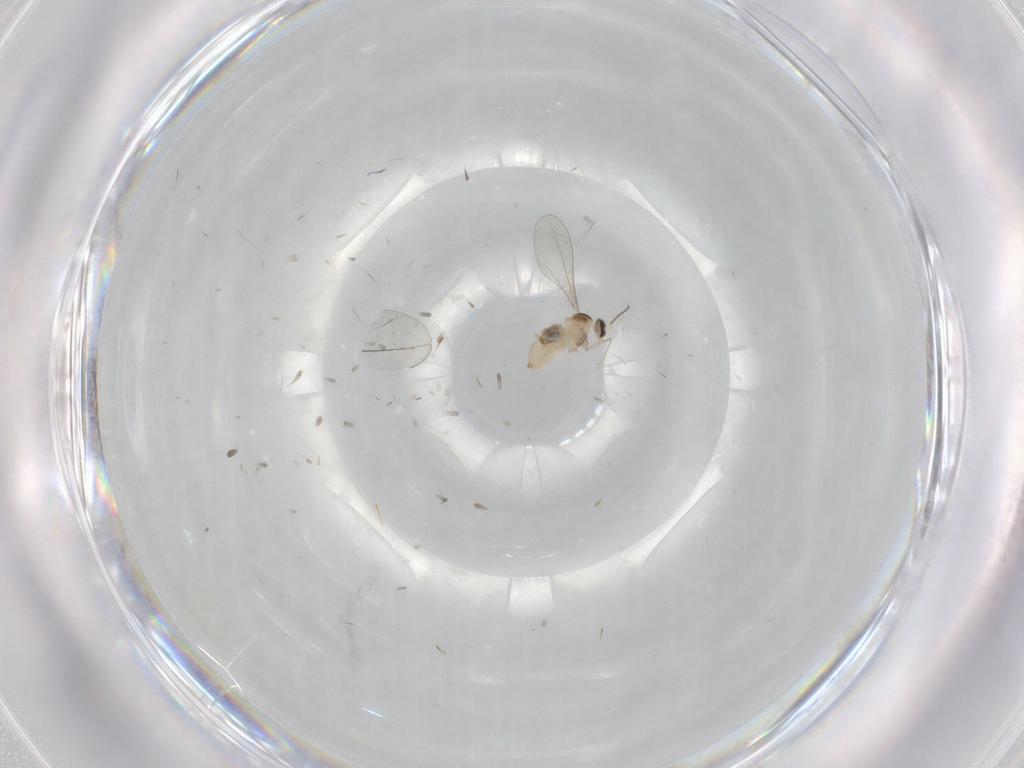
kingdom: Animalia
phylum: Arthropoda
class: Insecta
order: Diptera
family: Cecidomyiidae
